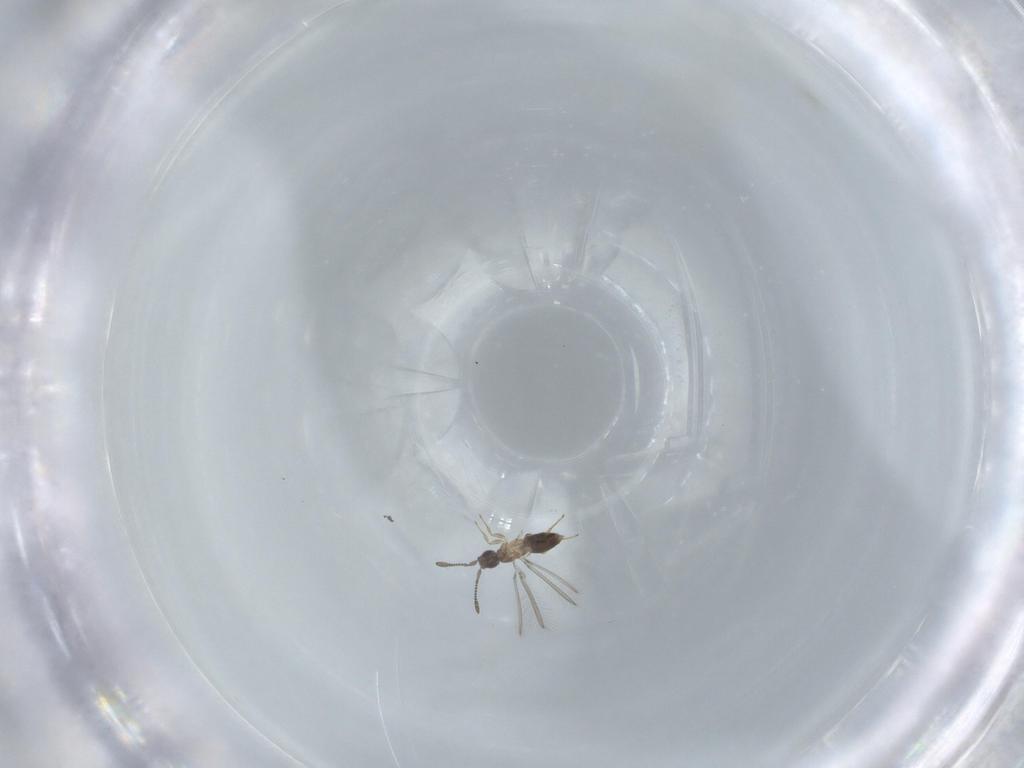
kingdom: Animalia
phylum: Arthropoda
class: Insecta
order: Hymenoptera
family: Mymaridae
